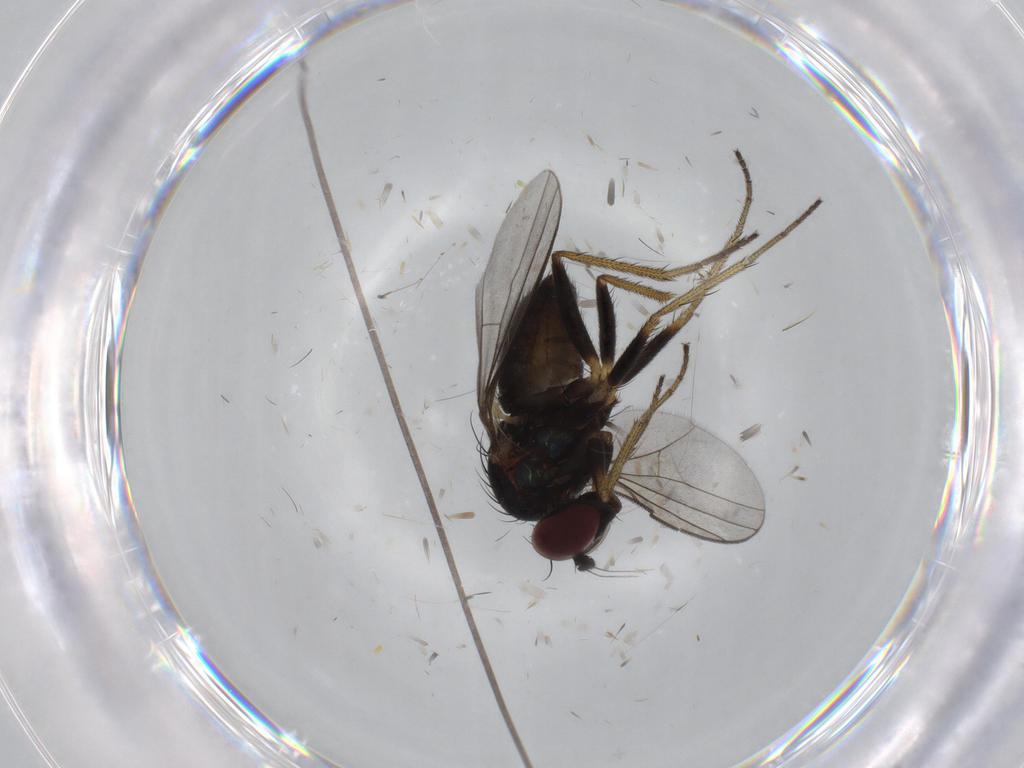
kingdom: Animalia
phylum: Arthropoda
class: Insecta
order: Diptera
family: Dolichopodidae
